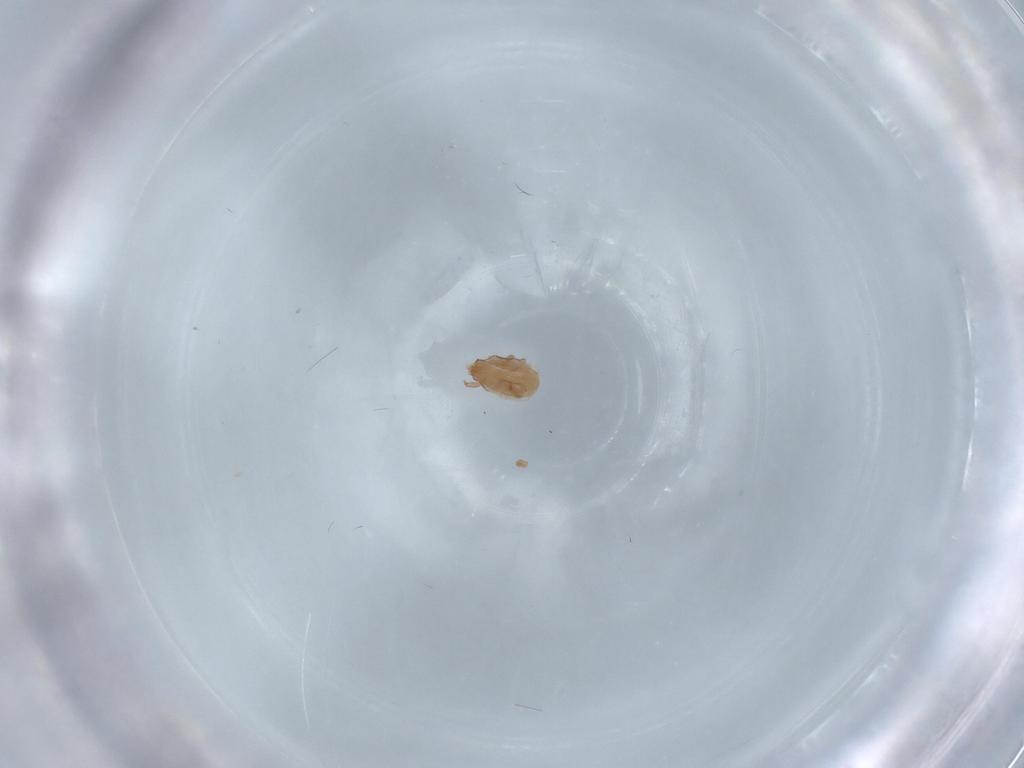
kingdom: Animalia
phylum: Arthropoda
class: Arachnida
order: Mesostigmata
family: Dinychidae
